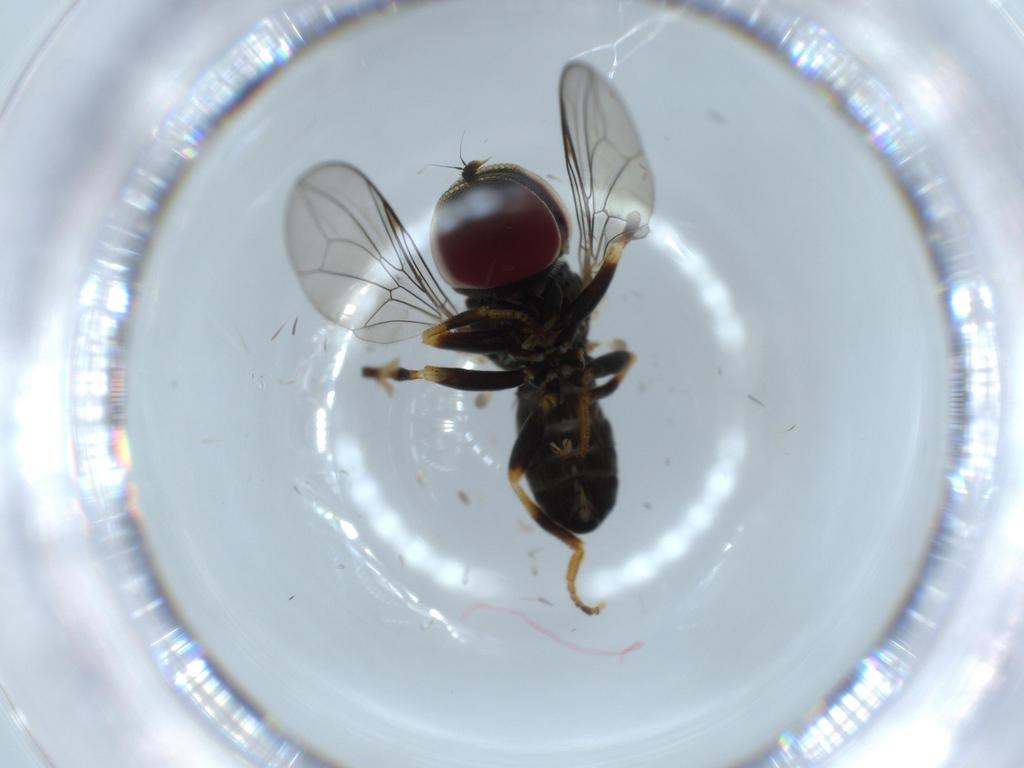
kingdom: Animalia
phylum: Arthropoda
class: Insecta
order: Diptera
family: Pipunculidae
